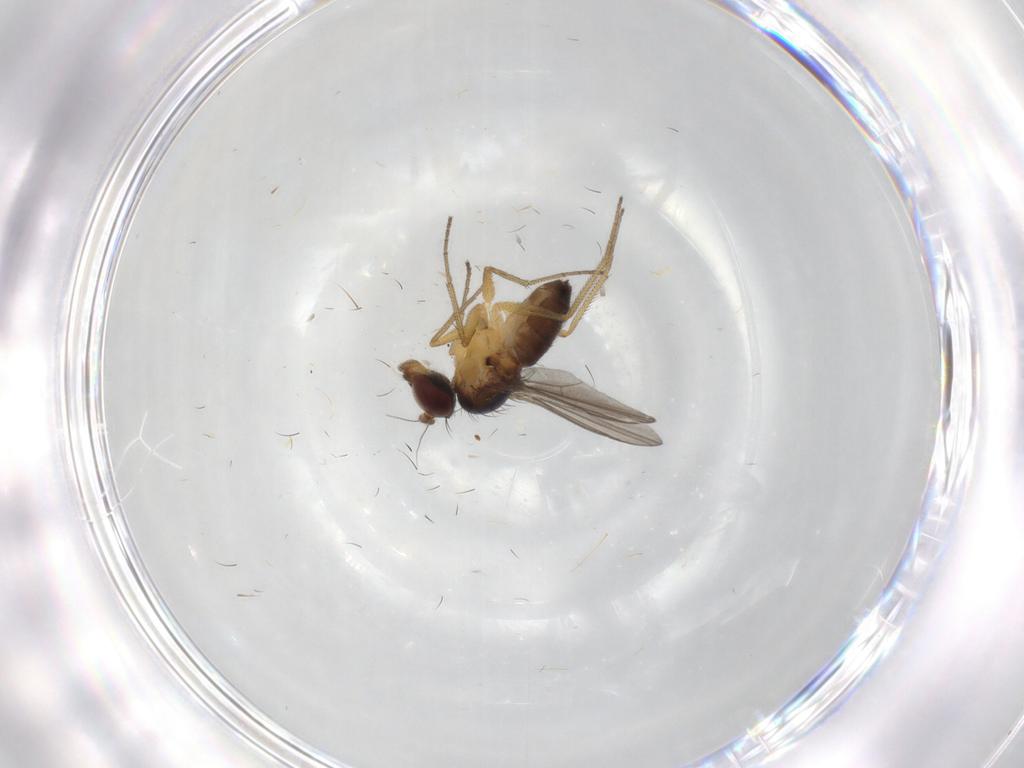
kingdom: Animalia
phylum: Arthropoda
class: Insecta
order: Diptera
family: Dolichopodidae
